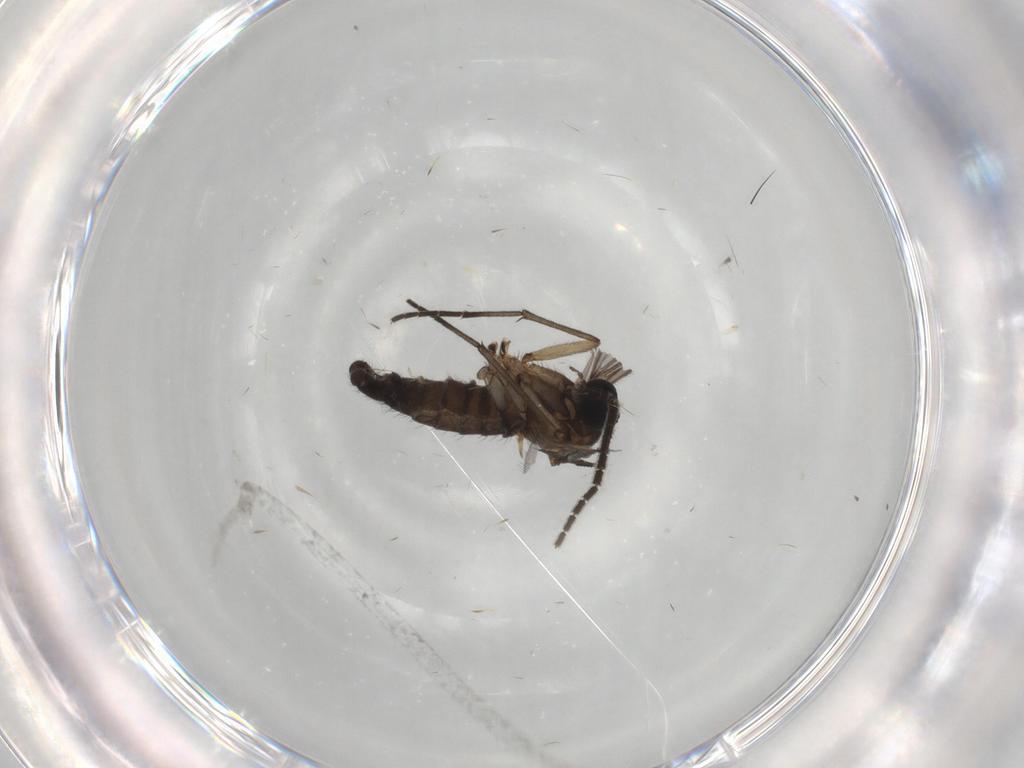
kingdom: Animalia
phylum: Arthropoda
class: Insecta
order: Diptera
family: Sciaridae
